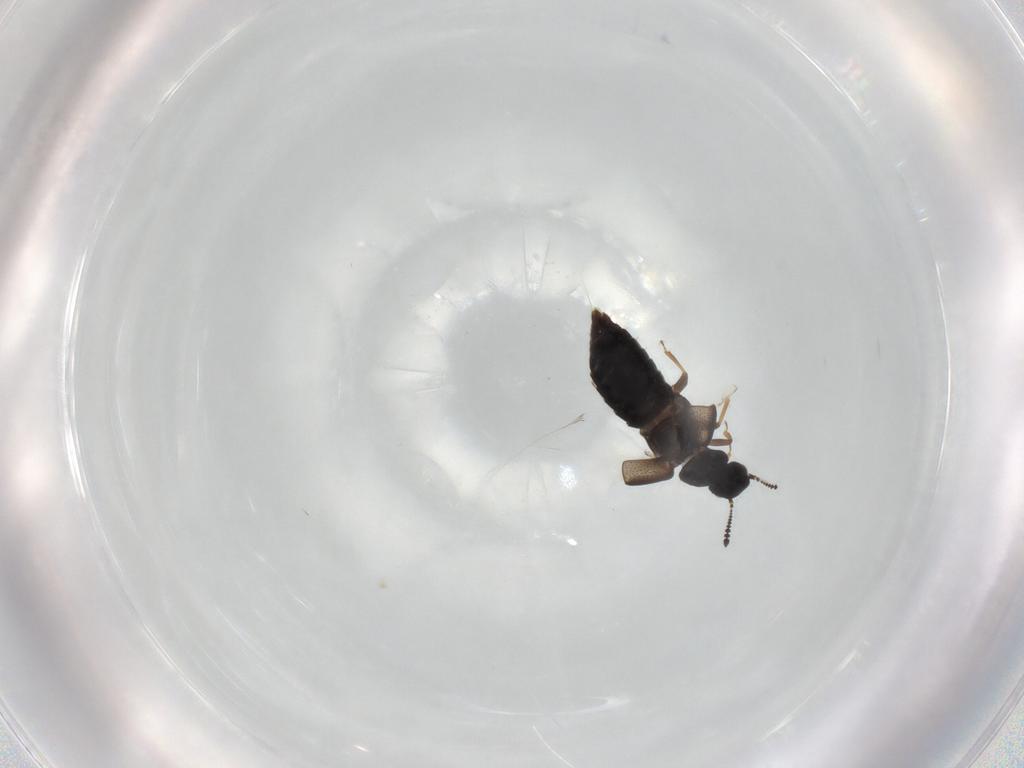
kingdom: Animalia
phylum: Arthropoda
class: Insecta
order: Coleoptera
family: Staphylinidae
